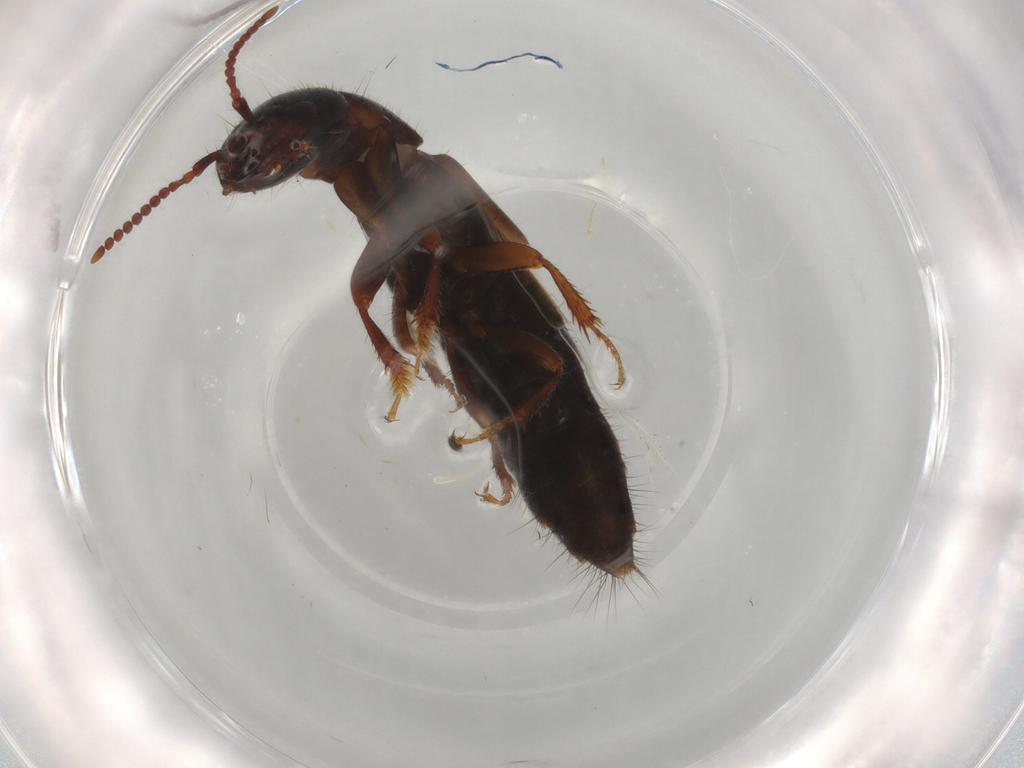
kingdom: Animalia
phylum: Arthropoda
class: Insecta
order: Coleoptera
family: Staphylinidae
